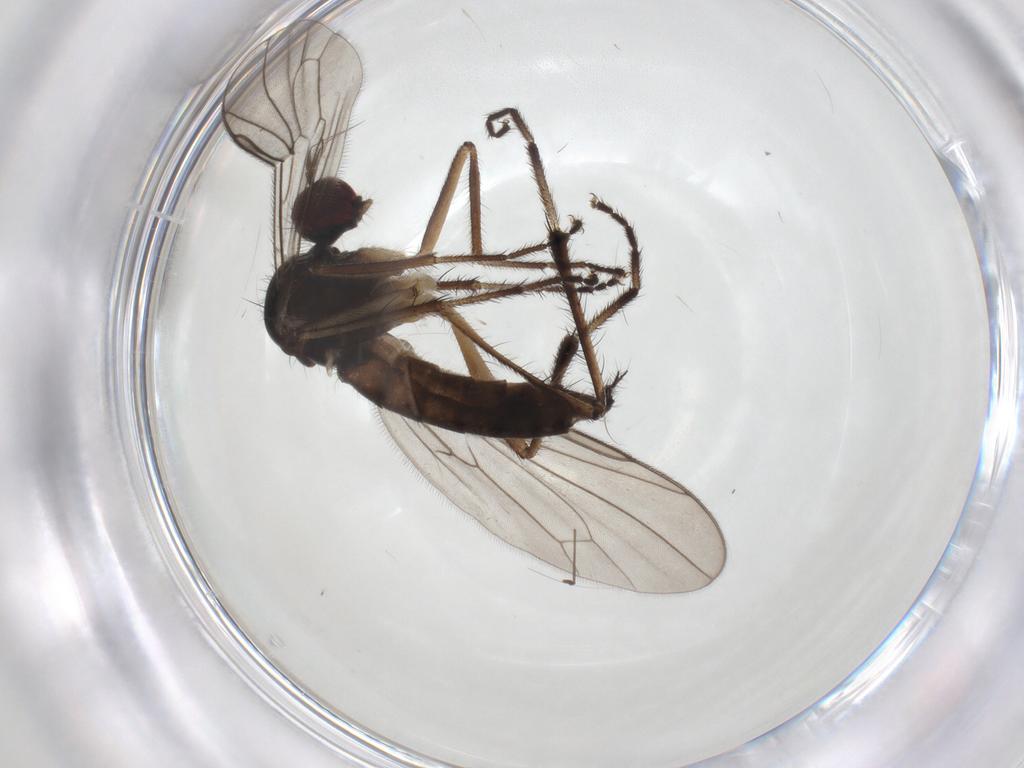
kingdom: Animalia
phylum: Arthropoda
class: Insecta
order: Diptera
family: Hybotidae
